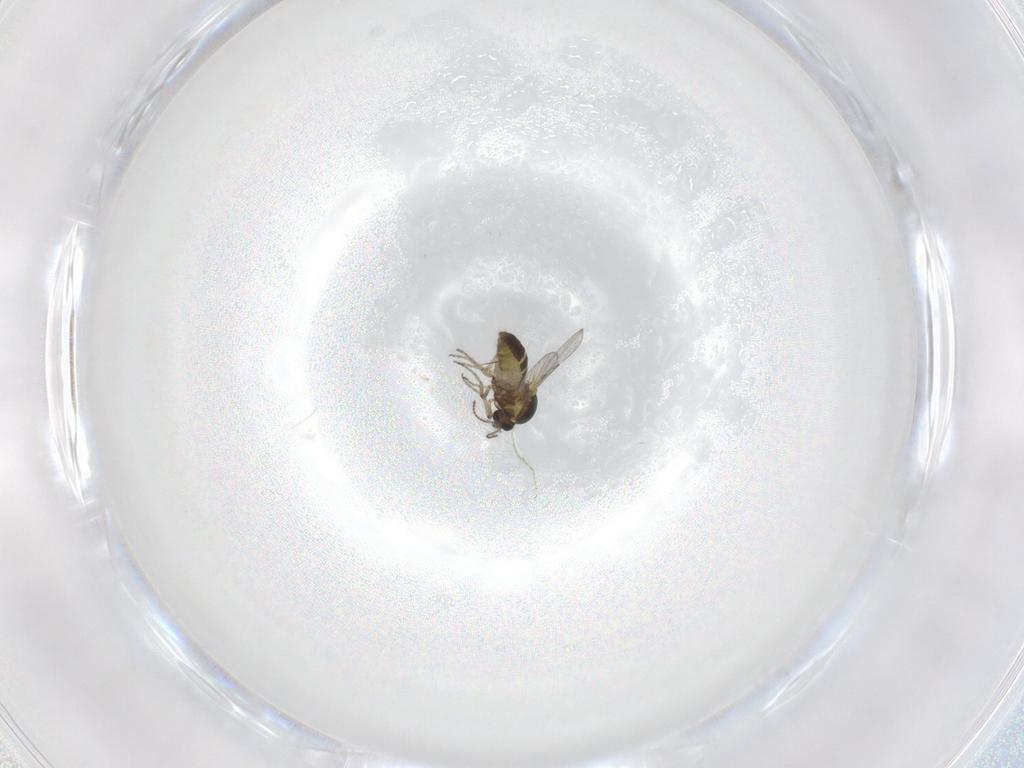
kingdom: Animalia
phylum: Arthropoda
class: Insecta
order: Diptera
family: Ceratopogonidae
